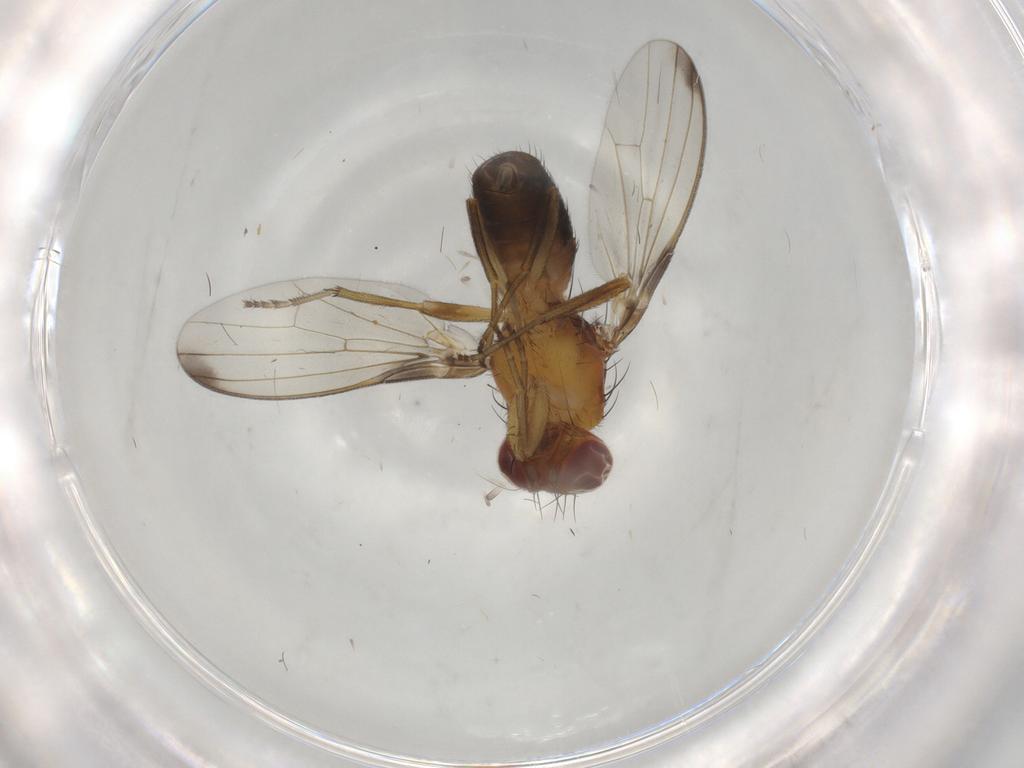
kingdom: Animalia
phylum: Arthropoda
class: Insecta
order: Diptera
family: Piophilidae
